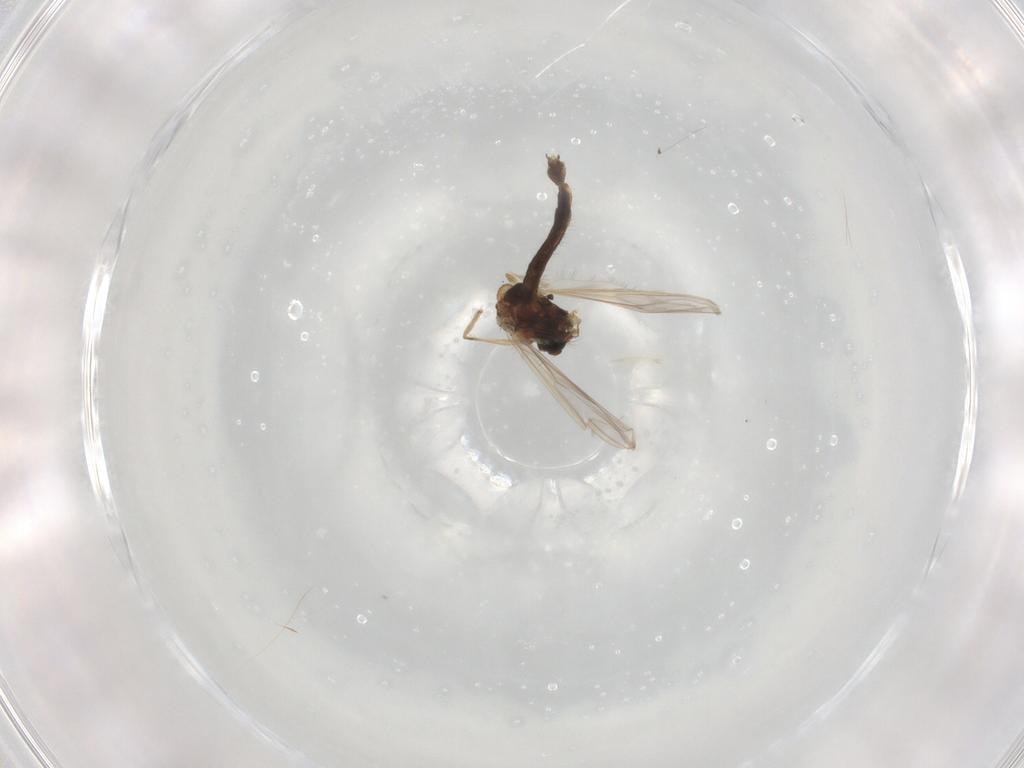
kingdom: Animalia
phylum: Arthropoda
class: Insecta
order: Diptera
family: Chironomidae
